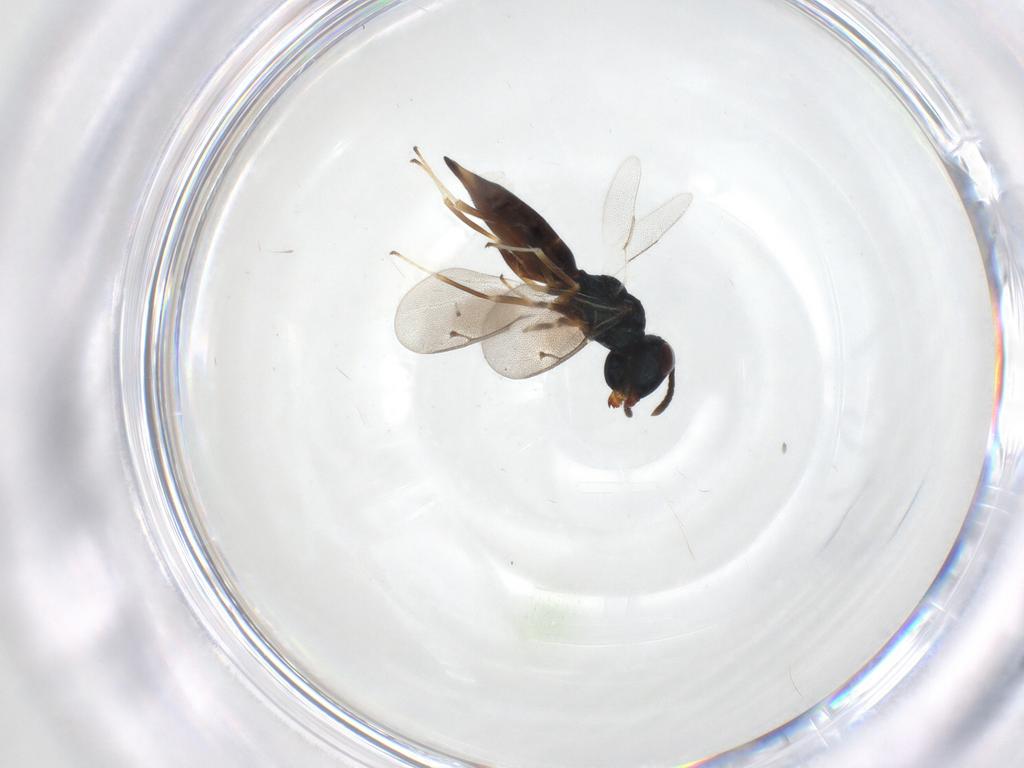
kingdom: Animalia
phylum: Arthropoda
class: Insecta
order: Hymenoptera
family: Pteromalidae
